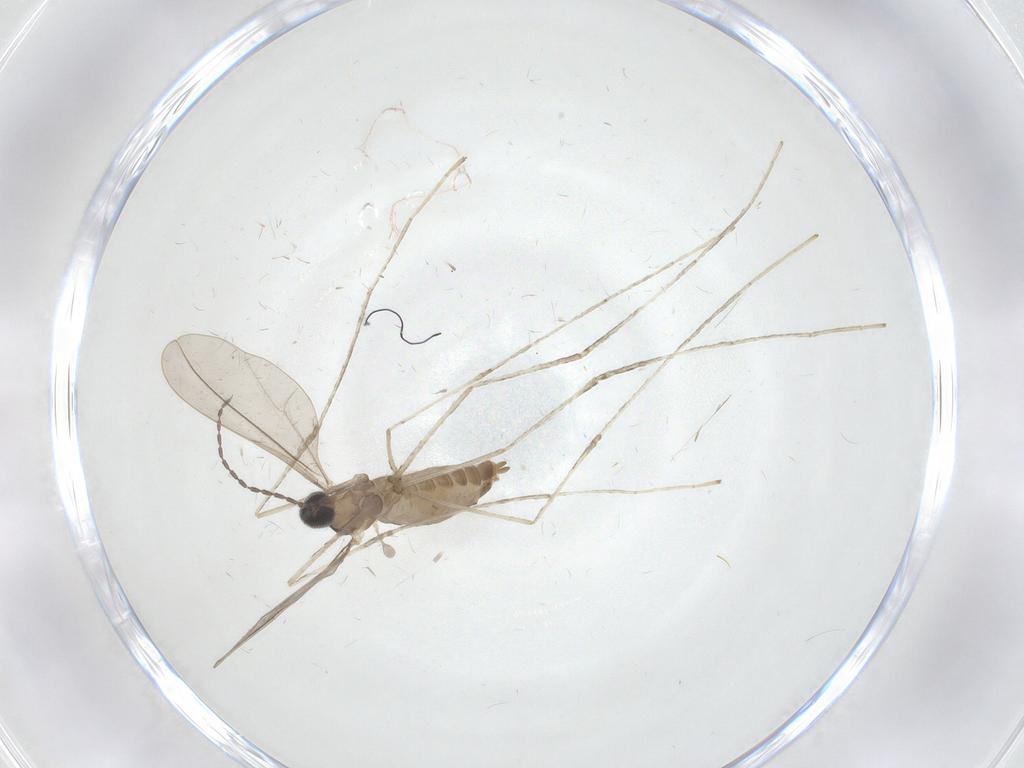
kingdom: Animalia
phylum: Arthropoda
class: Insecta
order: Diptera
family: Cecidomyiidae
